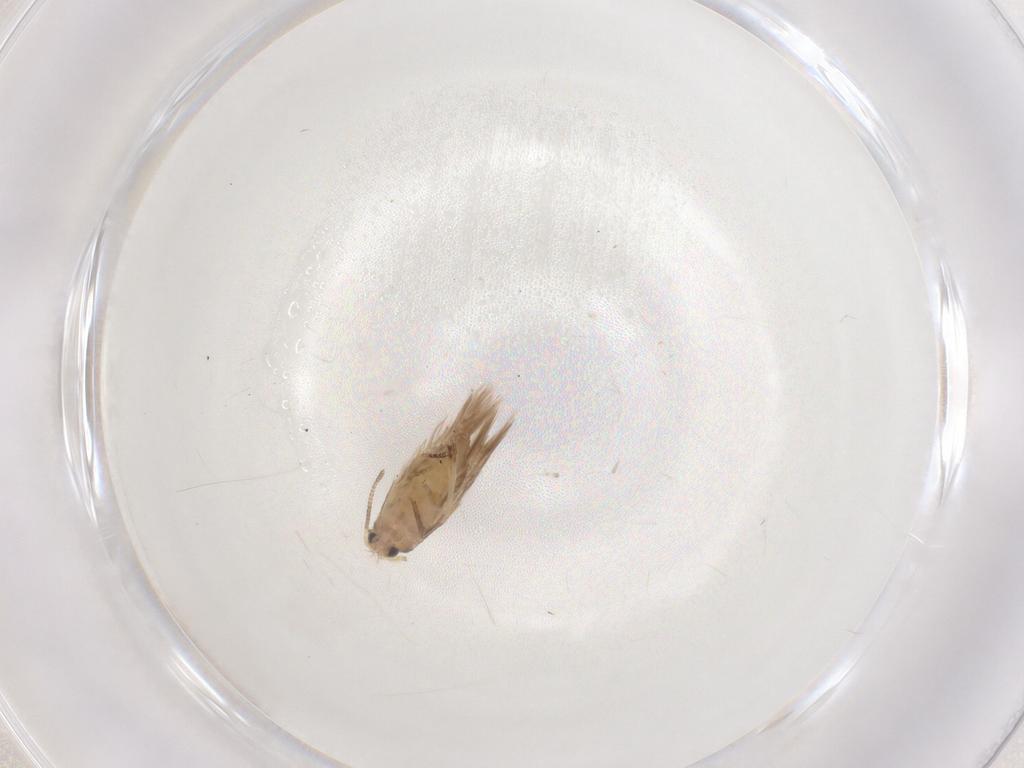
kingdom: Animalia
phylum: Arthropoda
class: Insecta
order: Lepidoptera
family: Nepticulidae
